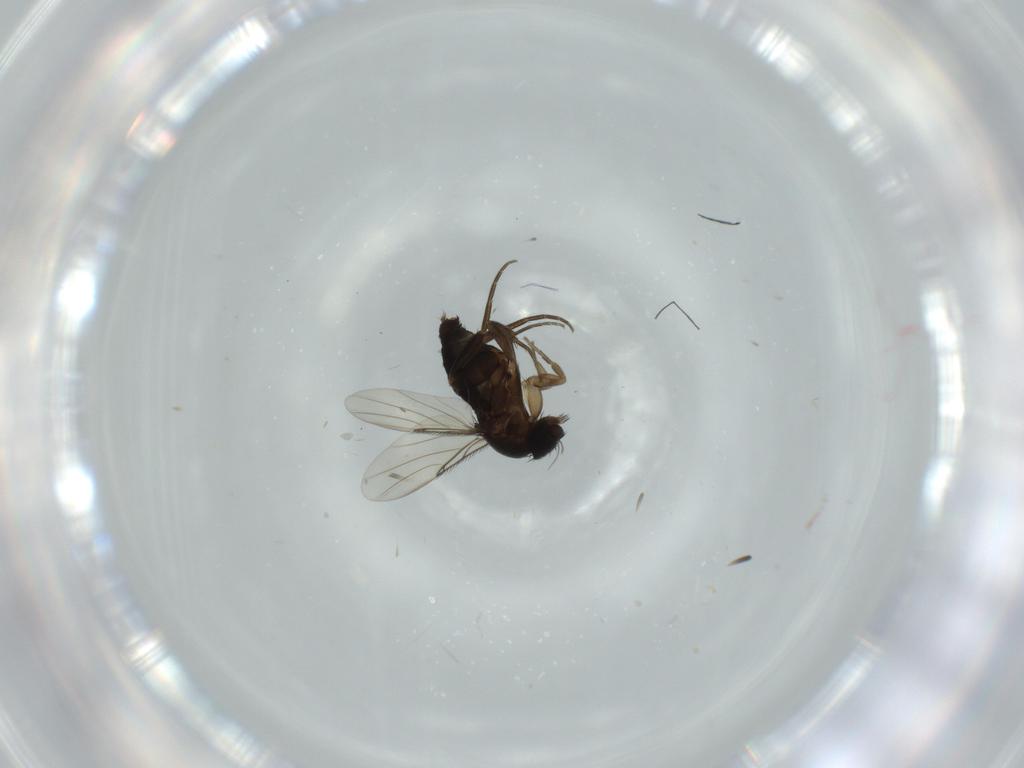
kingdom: Animalia
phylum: Arthropoda
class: Insecta
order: Diptera
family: Phoridae
